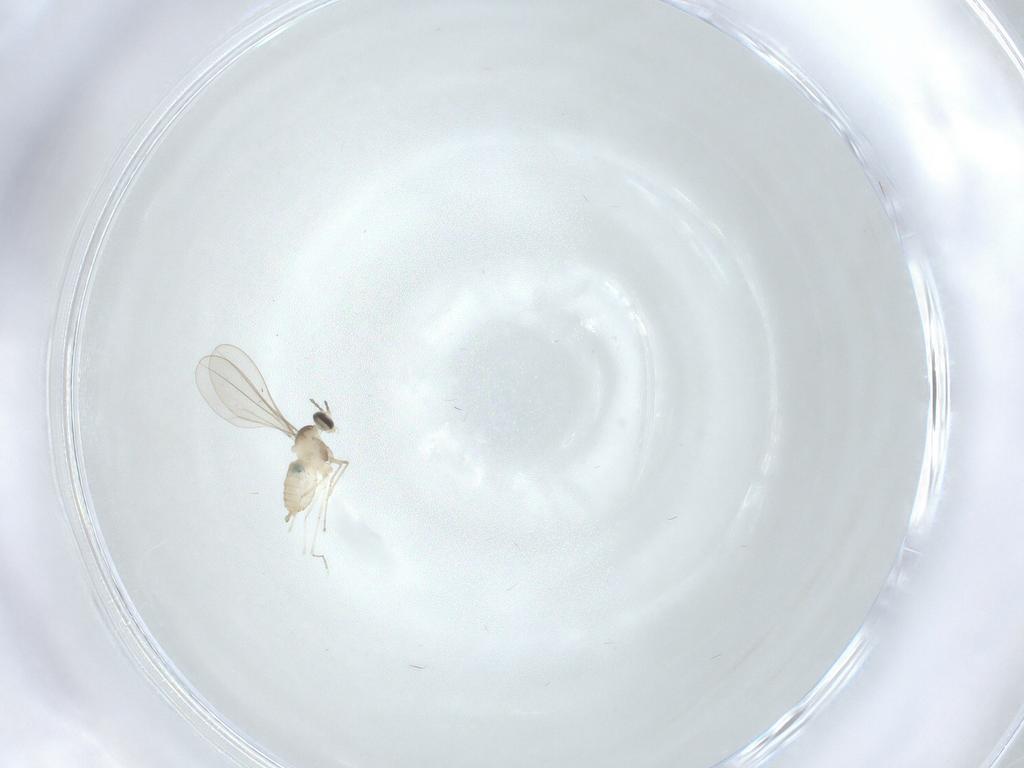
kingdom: Animalia
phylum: Arthropoda
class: Insecta
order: Diptera
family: Cecidomyiidae
